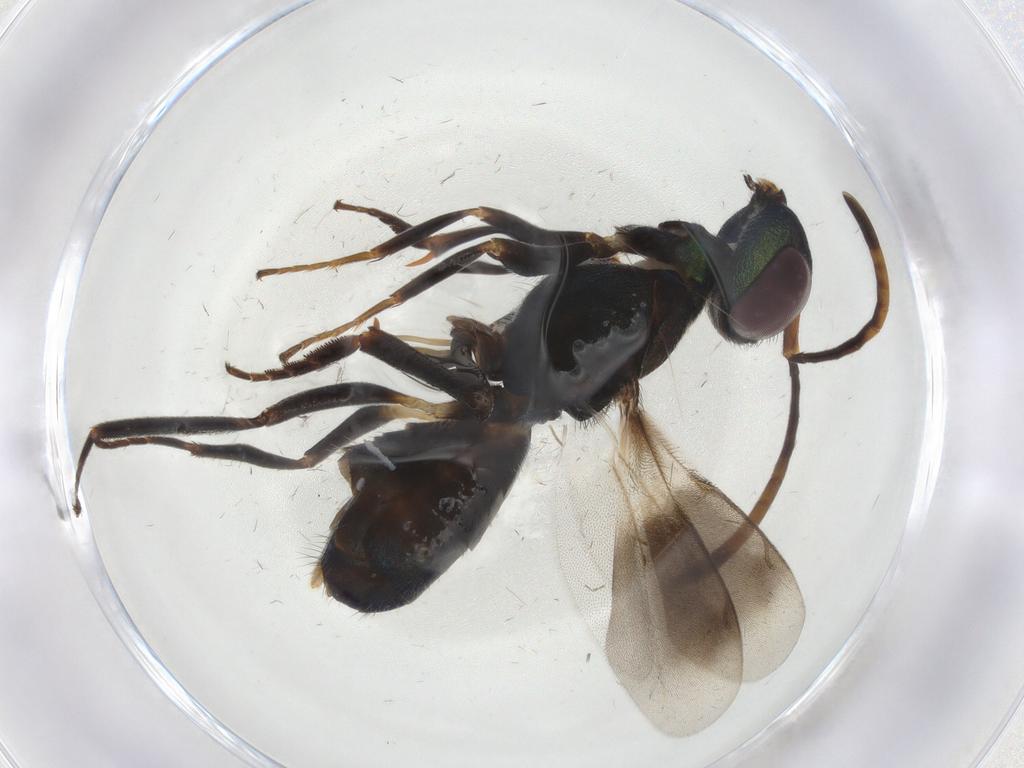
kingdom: Animalia
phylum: Arthropoda
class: Insecta
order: Hymenoptera
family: Eupelmidae
